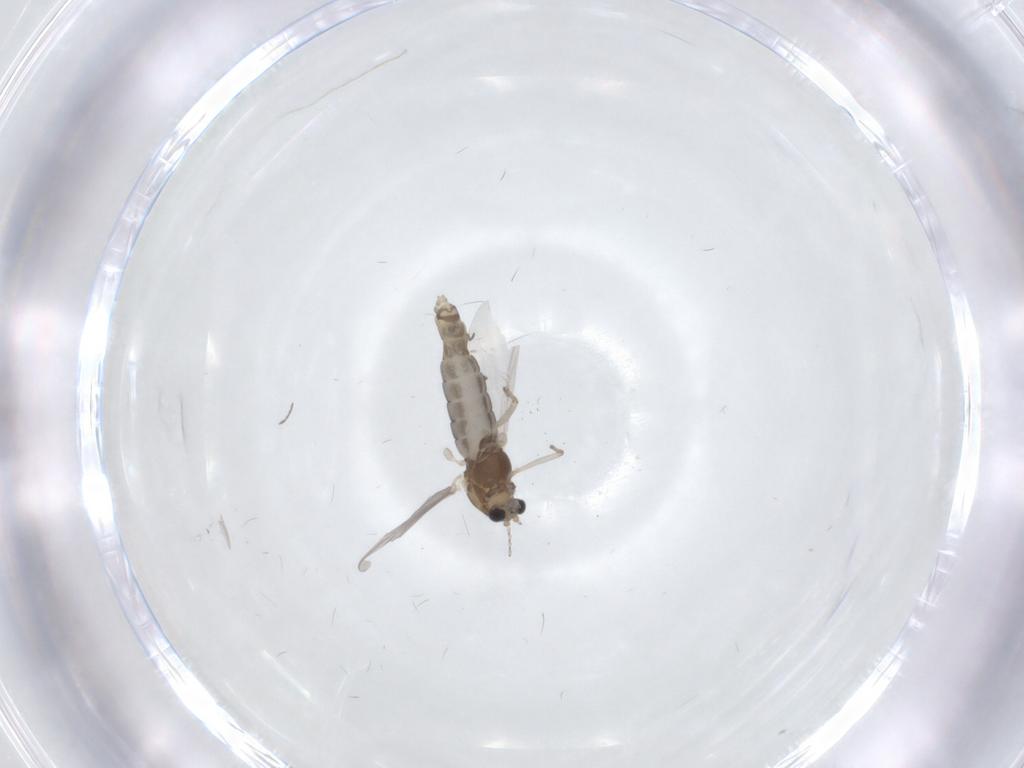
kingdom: Animalia
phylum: Arthropoda
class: Insecta
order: Diptera
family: Chironomidae
